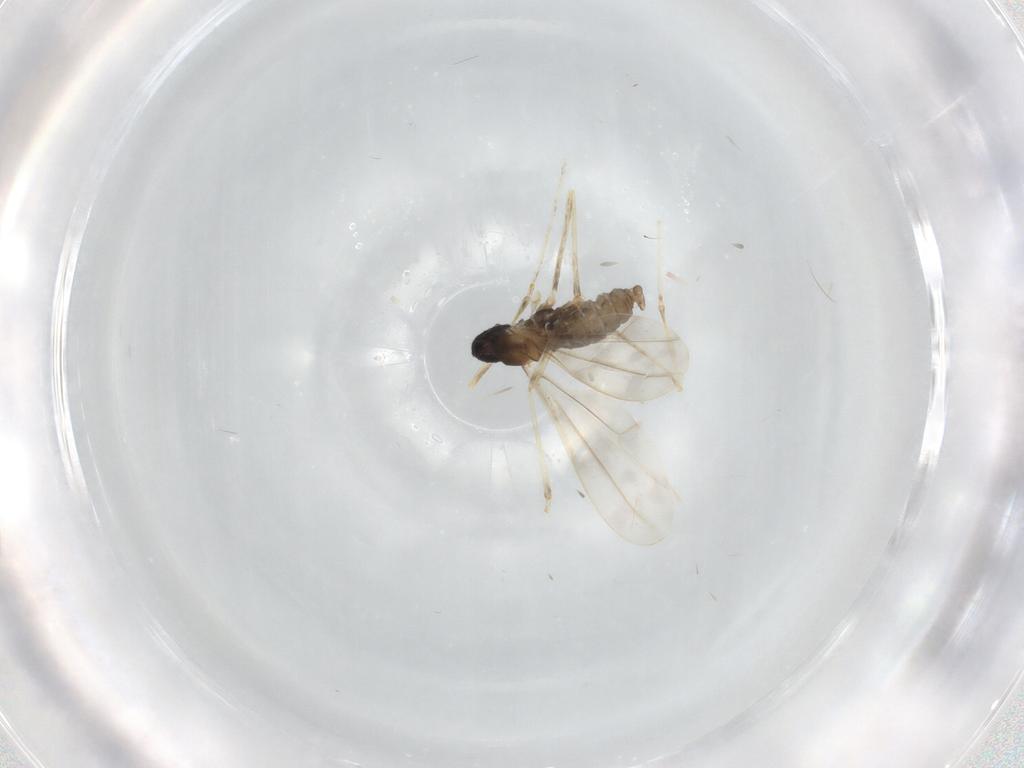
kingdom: Animalia
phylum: Arthropoda
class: Insecta
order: Diptera
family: Cecidomyiidae
